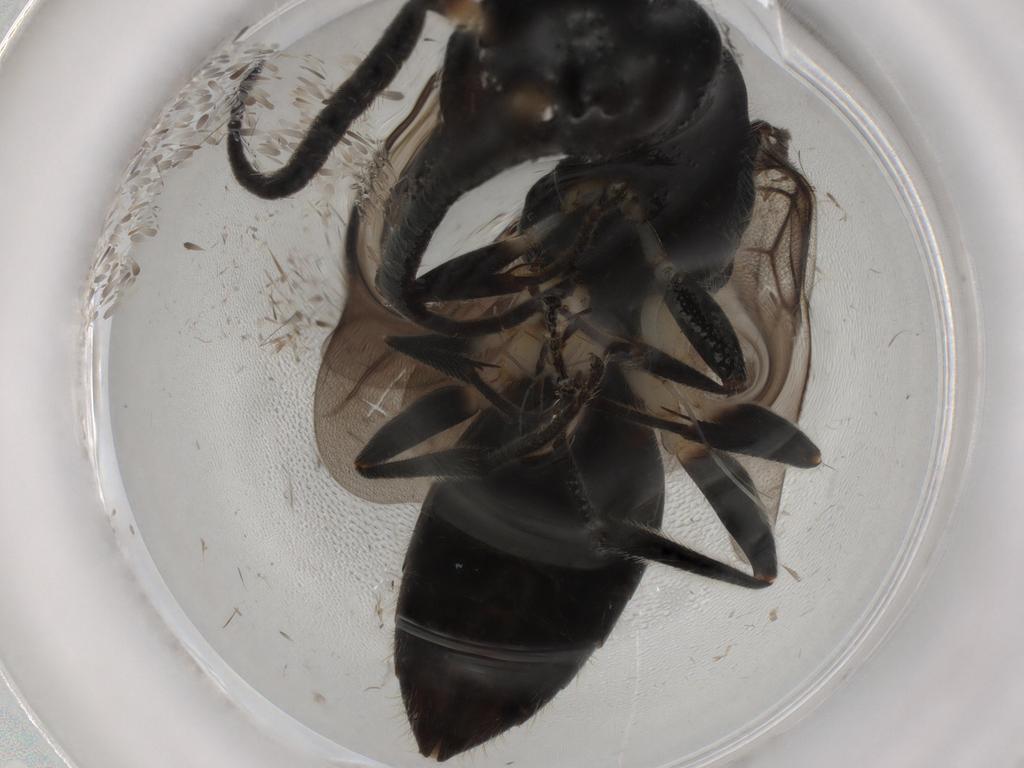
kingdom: Animalia
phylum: Arthropoda
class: Insecta
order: Hymenoptera
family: Bethylidae
